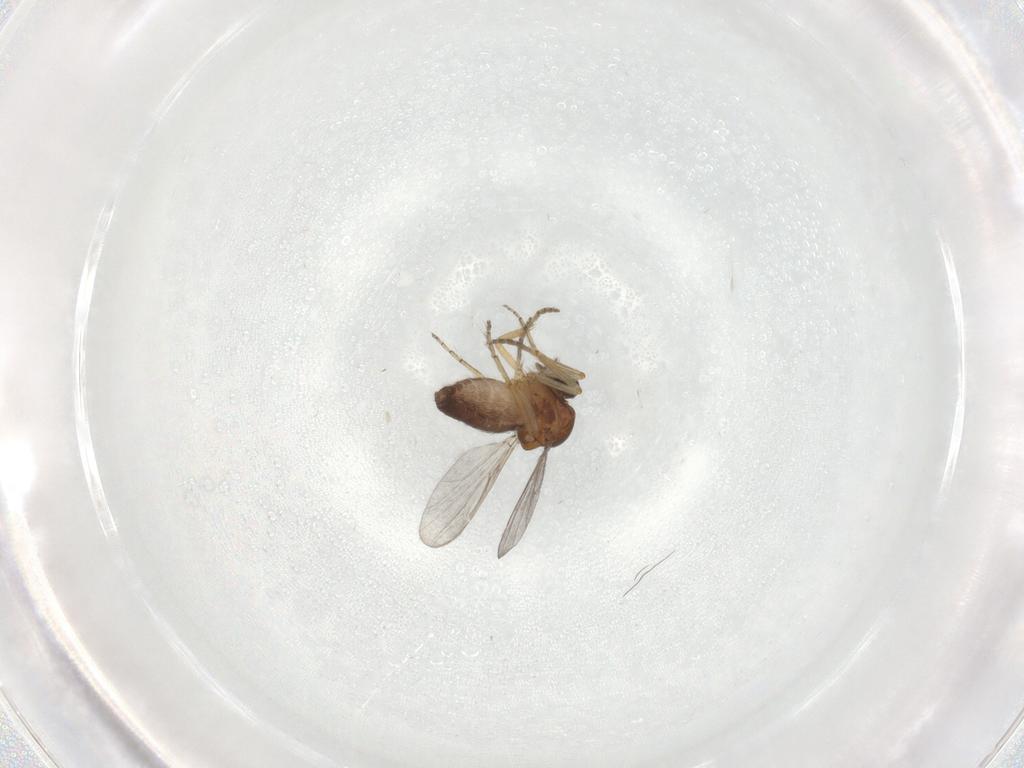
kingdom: Animalia
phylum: Arthropoda
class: Insecta
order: Diptera
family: Ceratopogonidae
